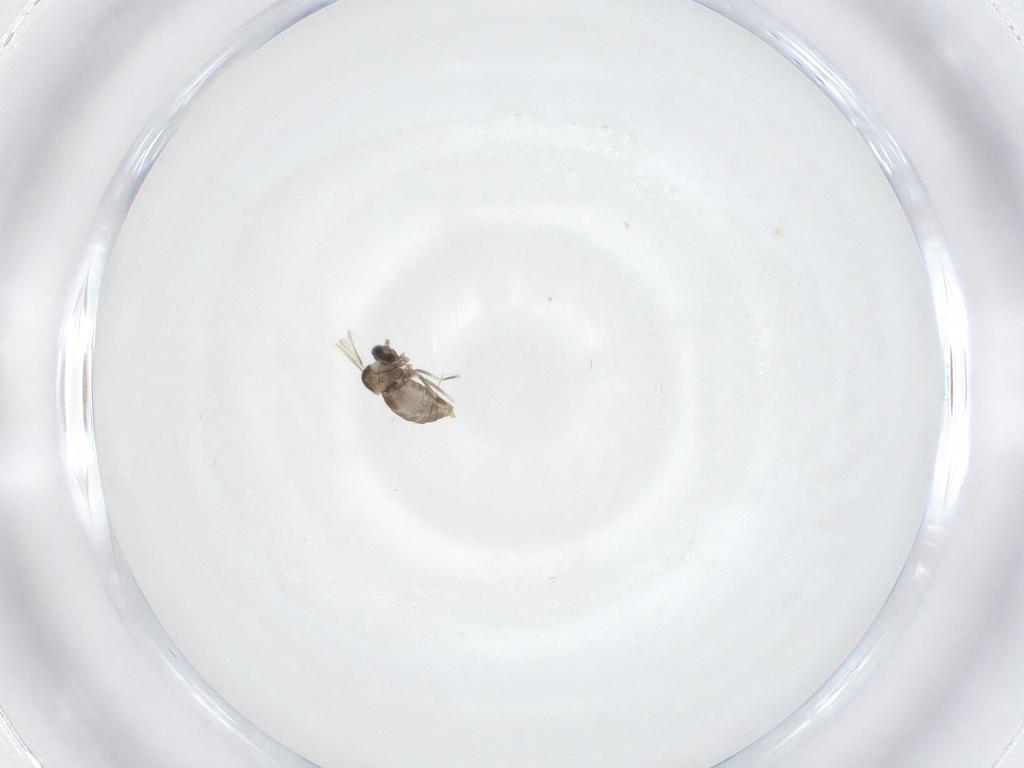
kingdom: Animalia
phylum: Arthropoda
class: Insecta
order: Diptera
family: Cecidomyiidae
